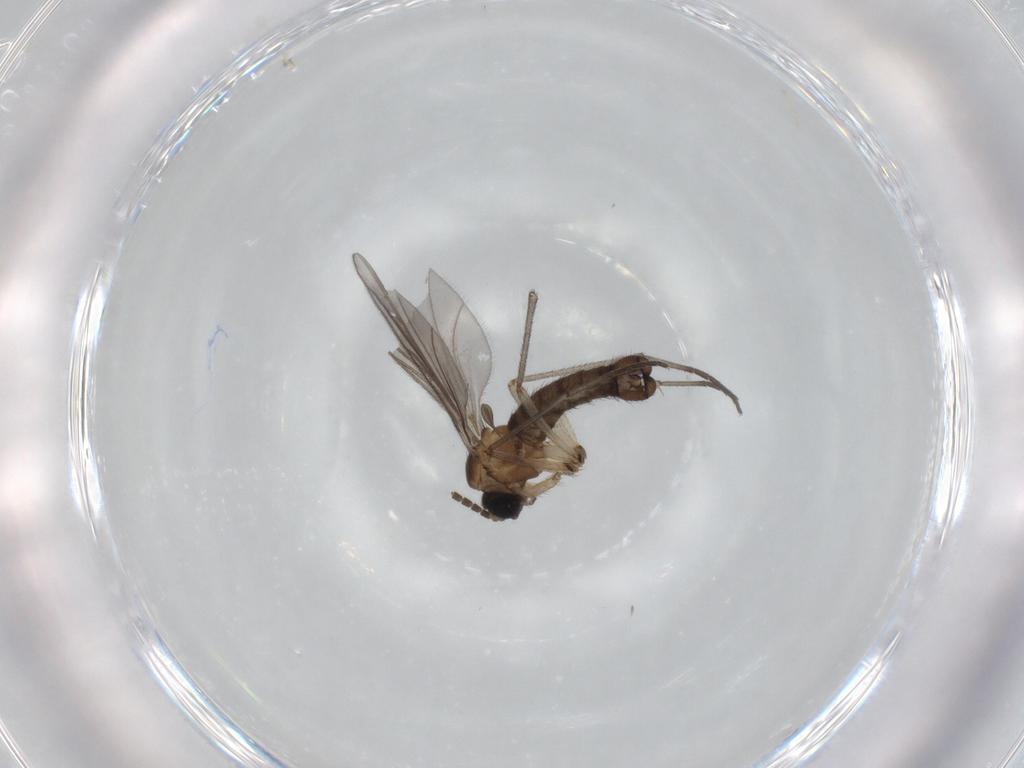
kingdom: Animalia
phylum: Arthropoda
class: Insecta
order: Diptera
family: Sciaridae
